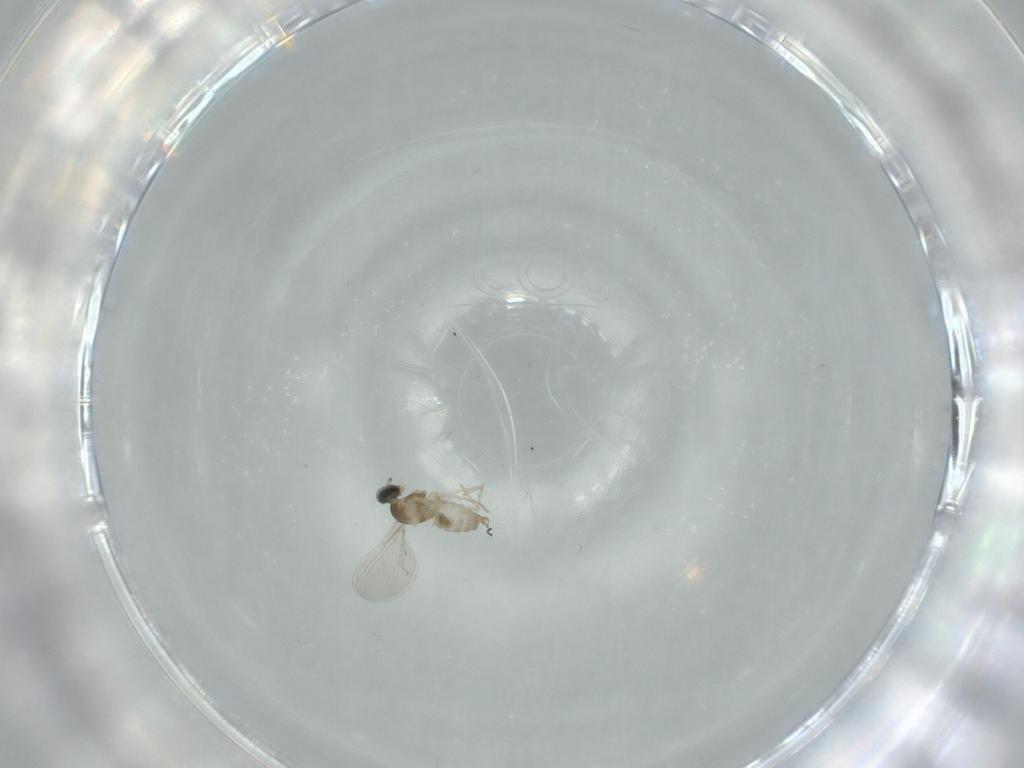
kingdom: Animalia
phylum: Arthropoda
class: Insecta
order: Diptera
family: Cecidomyiidae
